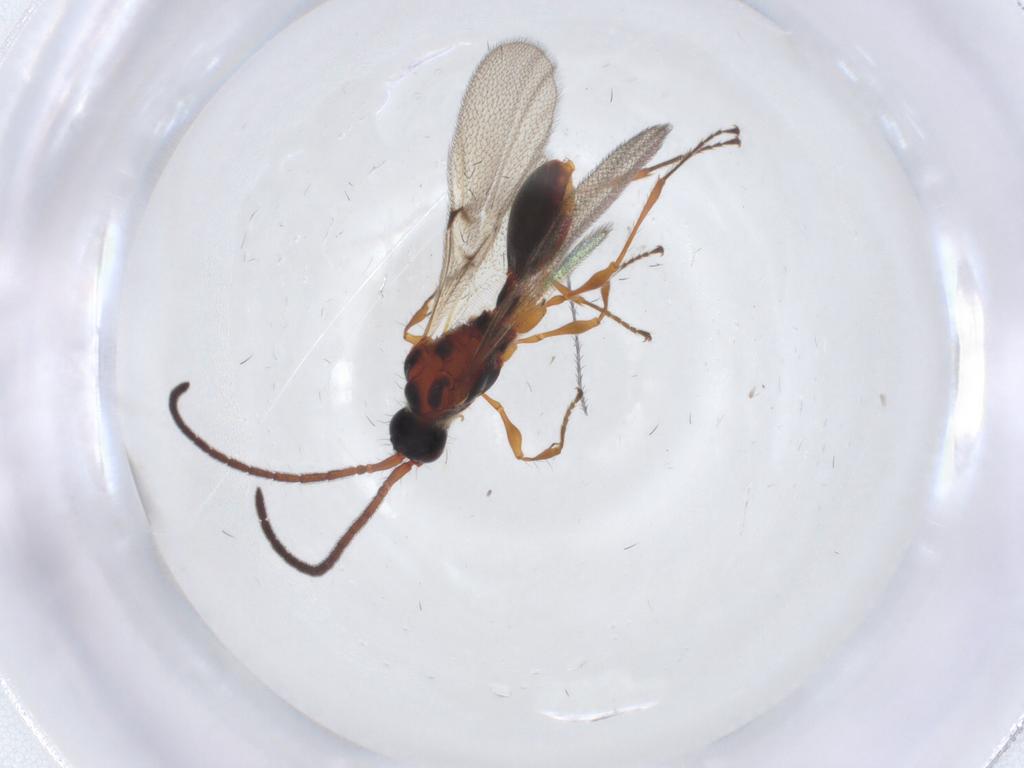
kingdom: Animalia
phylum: Arthropoda
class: Insecta
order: Hymenoptera
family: Diapriidae
